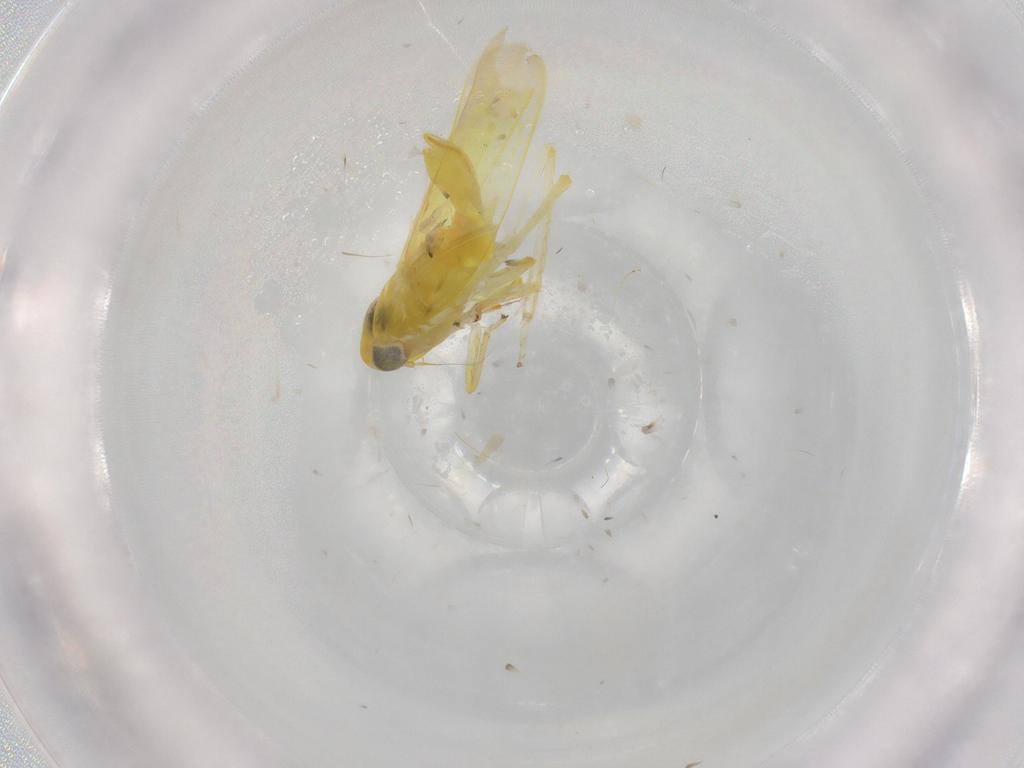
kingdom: Animalia
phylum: Arthropoda
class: Insecta
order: Hemiptera
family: Cicadellidae
